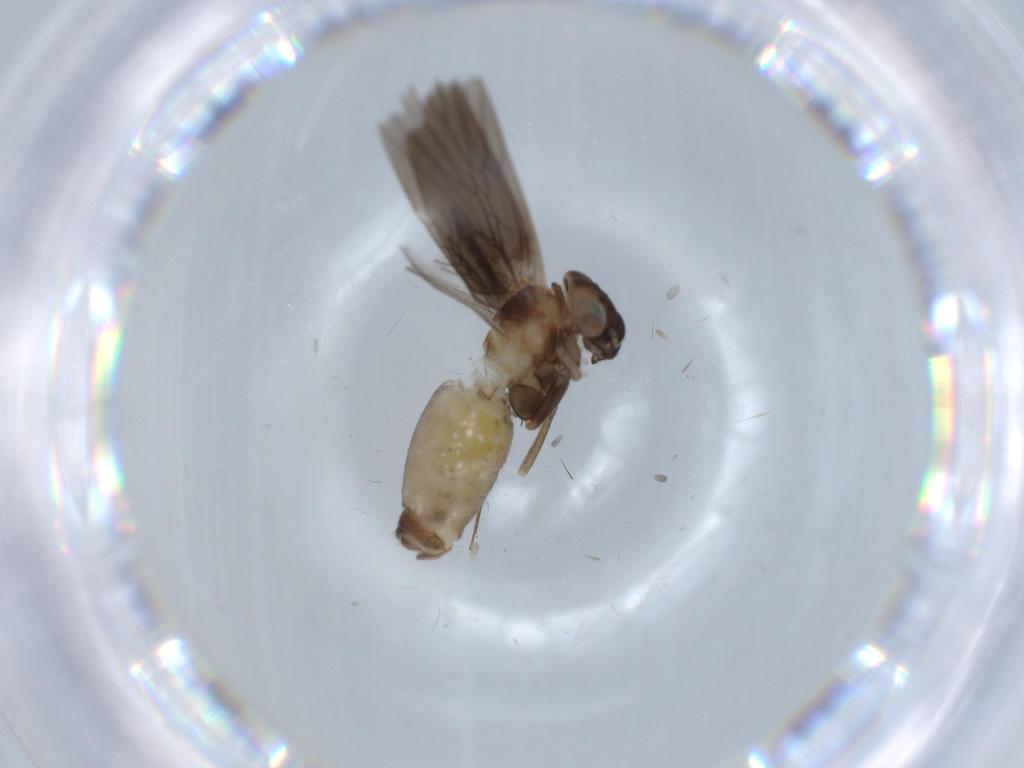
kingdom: Animalia
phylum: Arthropoda
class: Insecta
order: Psocodea
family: Lepidopsocidae
